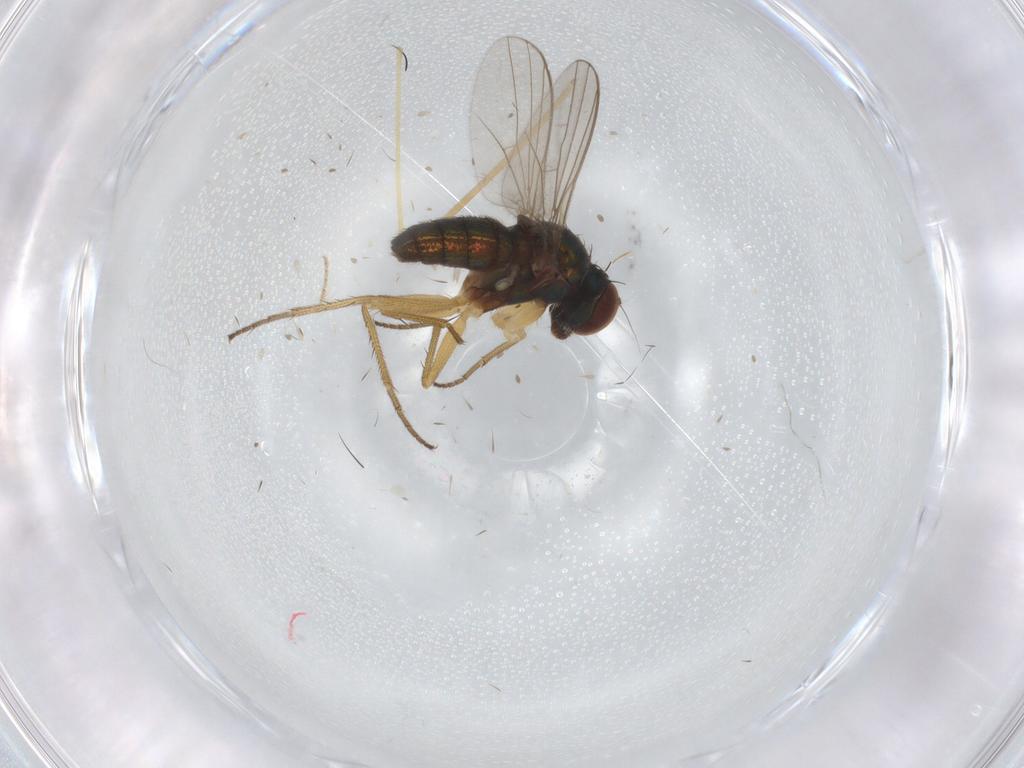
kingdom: Animalia
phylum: Arthropoda
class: Insecta
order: Diptera
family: Dolichopodidae
